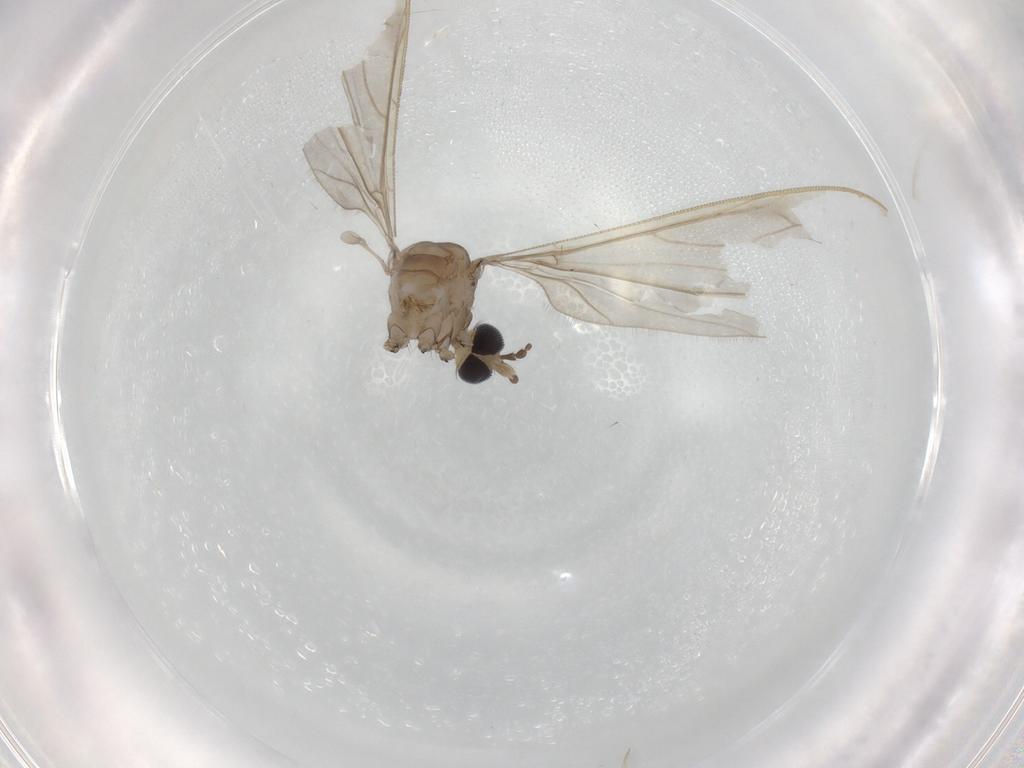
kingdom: Animalia
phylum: Arthropoda
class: Insecta
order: Diptera
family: Limoniidae
